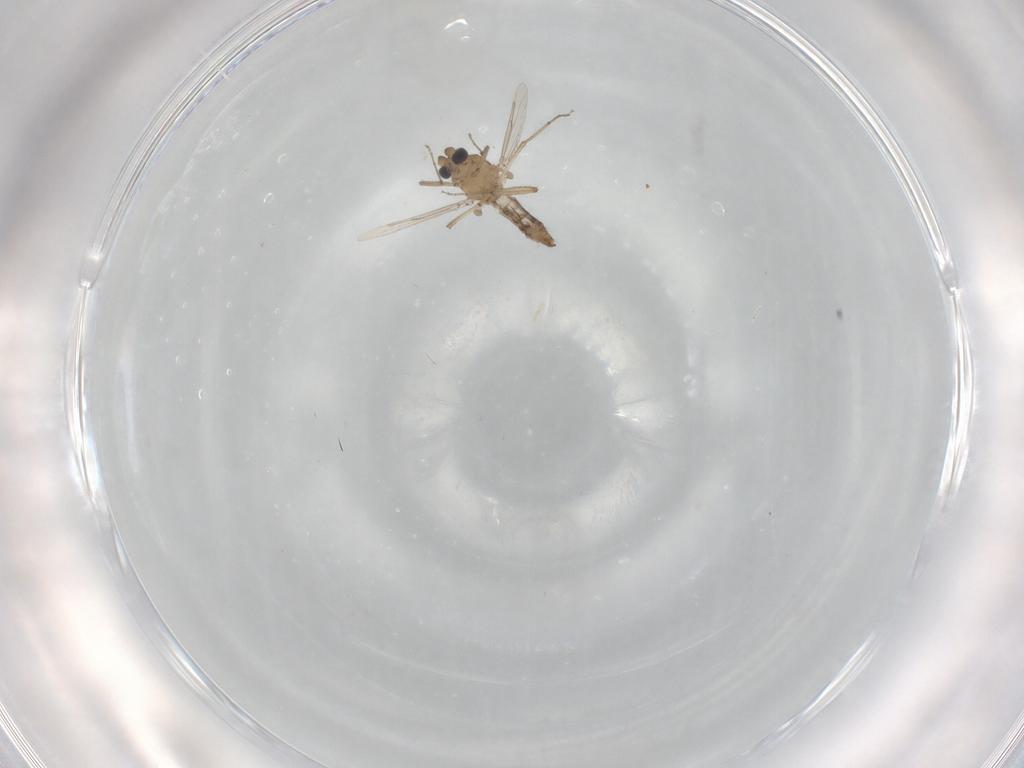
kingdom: Animalia
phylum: Arthropoda
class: Insecta
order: Diptera
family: Ceratopogonidae
